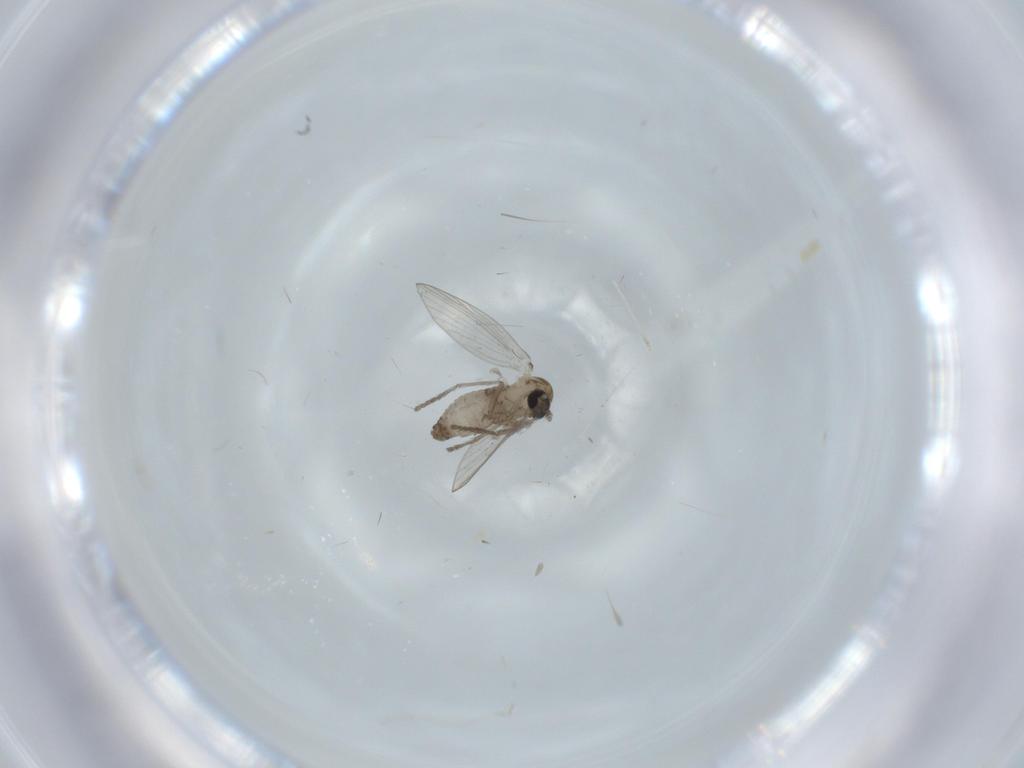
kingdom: Animalia
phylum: Arthropoda
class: Insecta
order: Diptera
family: Psychodidae
